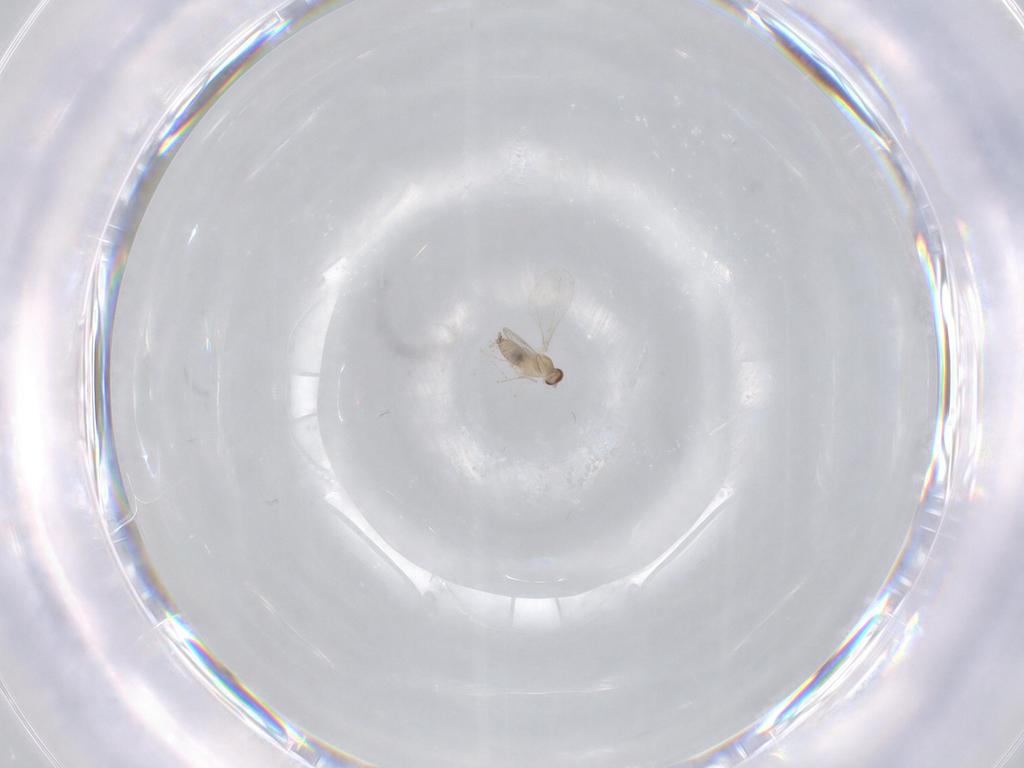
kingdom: Animalia
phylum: Arthropoda
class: Insecta
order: Diptera
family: Cecidomyiidae
